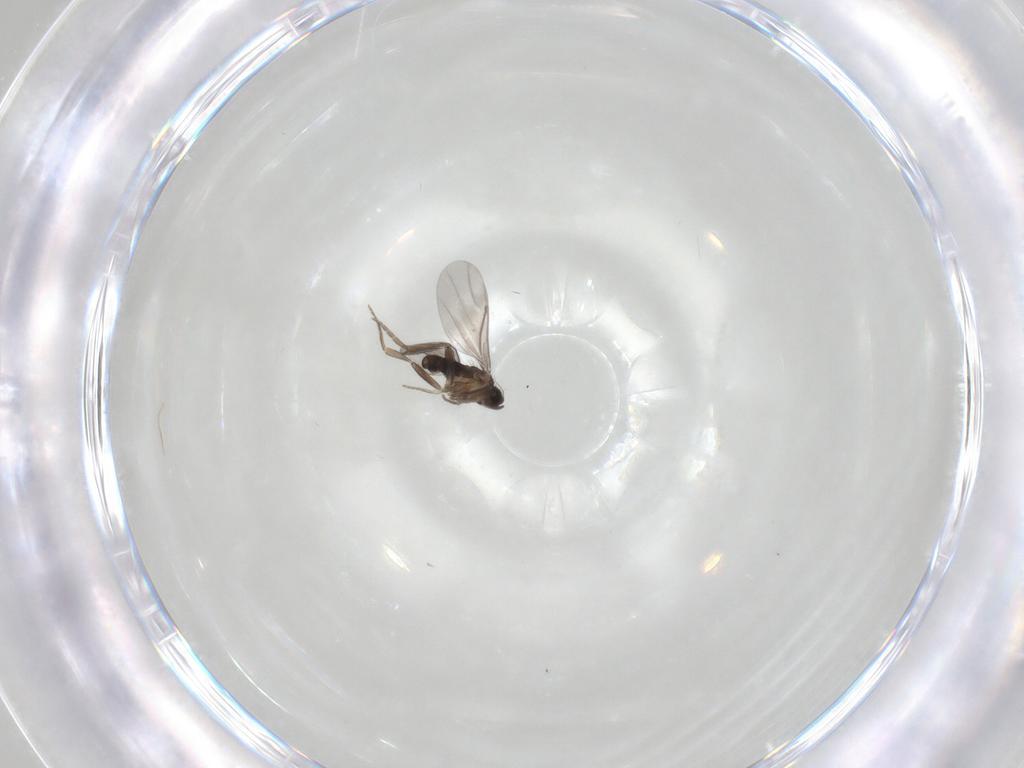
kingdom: Animalia
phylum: Arthropoda
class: Insecta
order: Diptera
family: Phoridae
